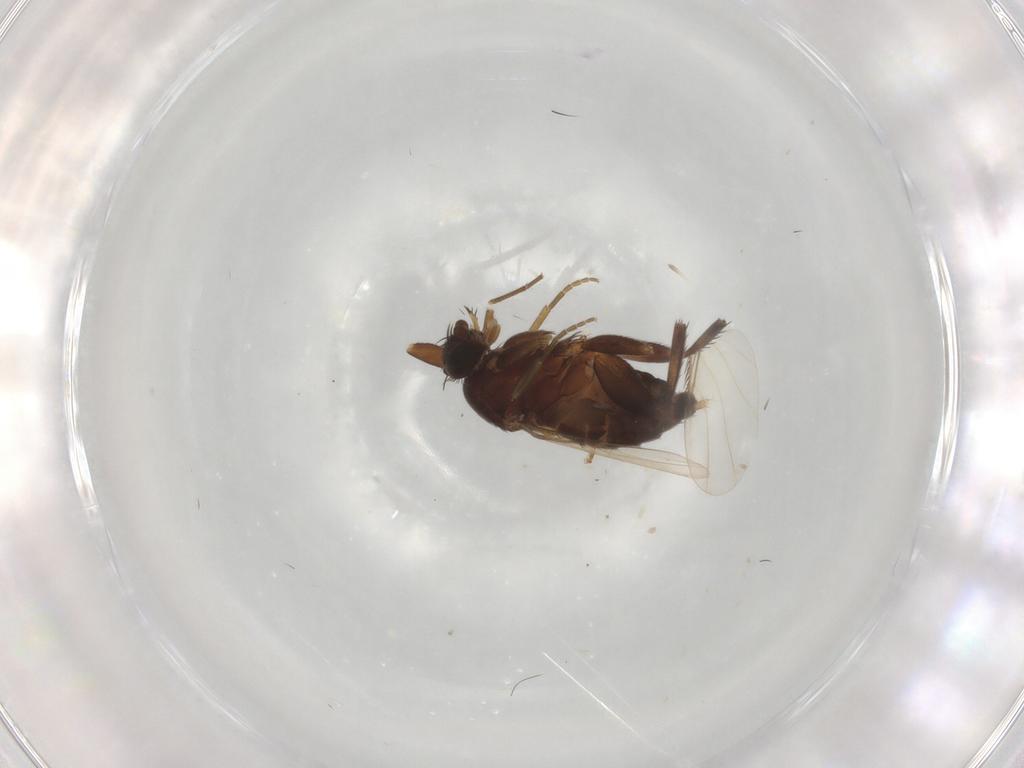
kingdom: Animalia
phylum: Arthropoda
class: Insecta
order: Diptera
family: Phoridae
